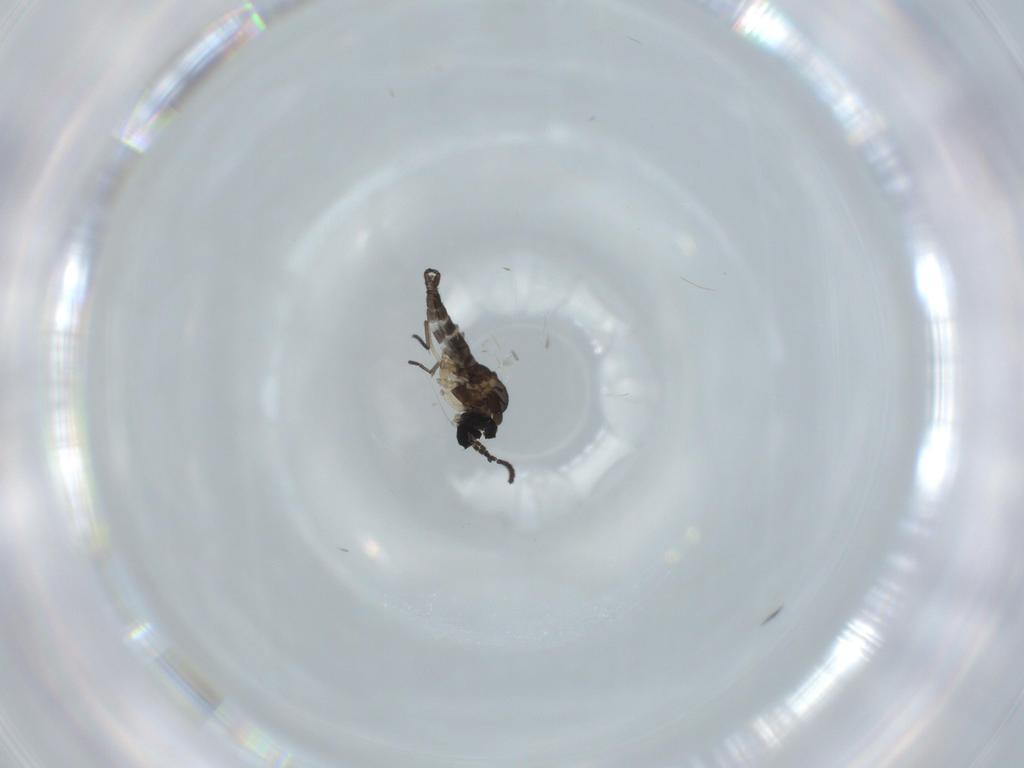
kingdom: Animalia
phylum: Arthropoda
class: Insecta
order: Diptera
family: Sciaridae
